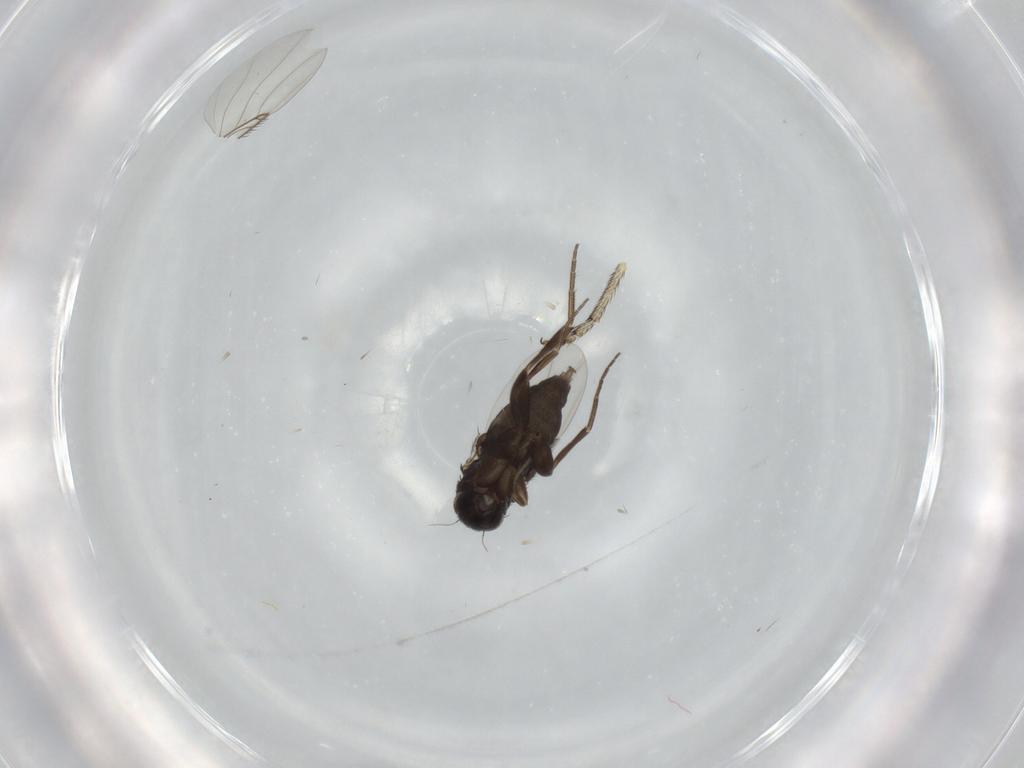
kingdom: Animalia
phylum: Arthropoda
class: Insecta
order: Diptera
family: Phoridae
